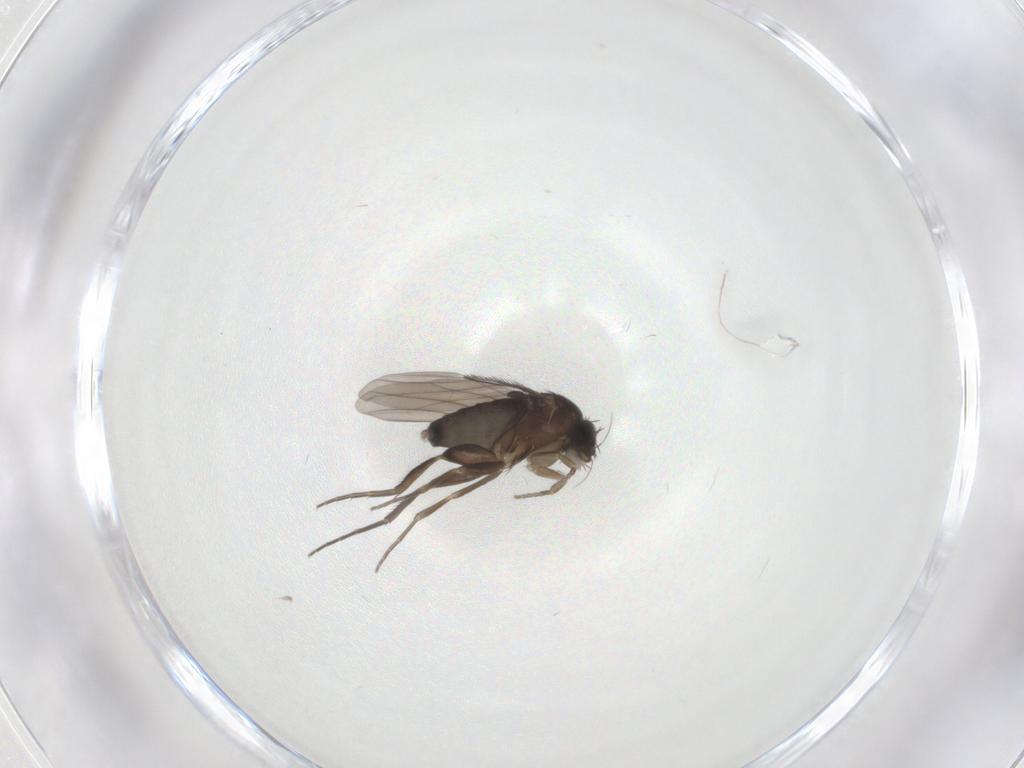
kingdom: Animalia
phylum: Arthropoda
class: Insecta
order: Diptera
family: Phoridae
